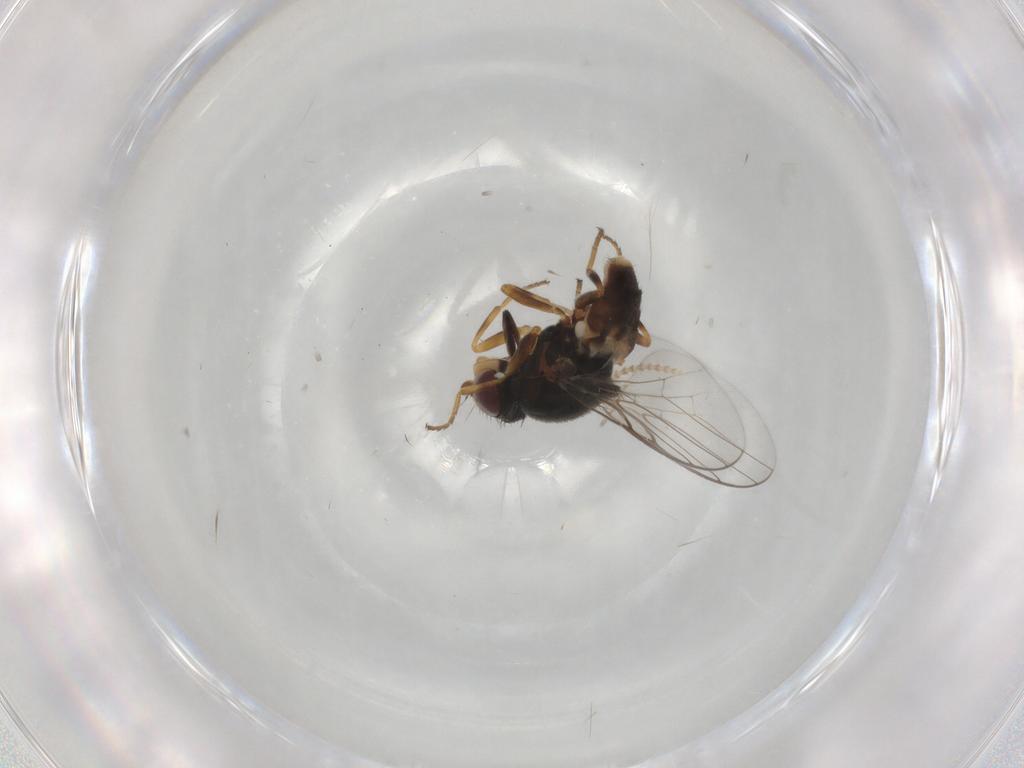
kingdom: Animalia
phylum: Arthropoda
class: Insecta
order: Diptera
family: Chloropidae
